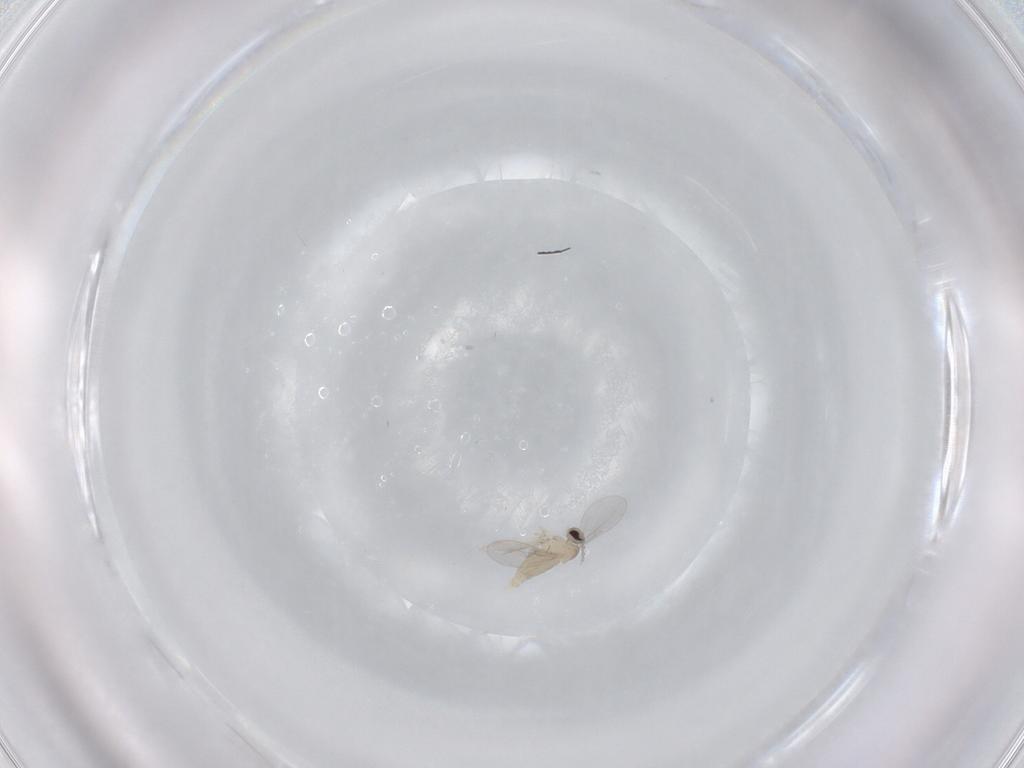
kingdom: Animalia
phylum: Arthropoda
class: Insecta
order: Diptera
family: Cecidomyiidae
